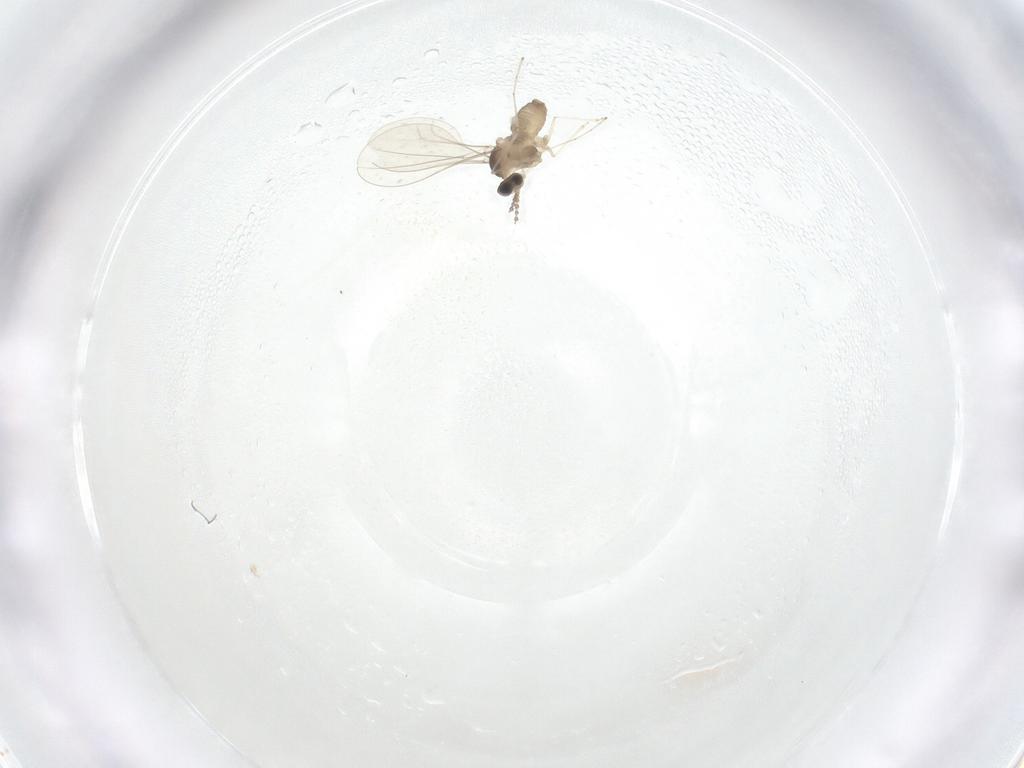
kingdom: Animalia
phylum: Arthropoda
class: Insecta
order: Diptera
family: Cecidomyiidae
